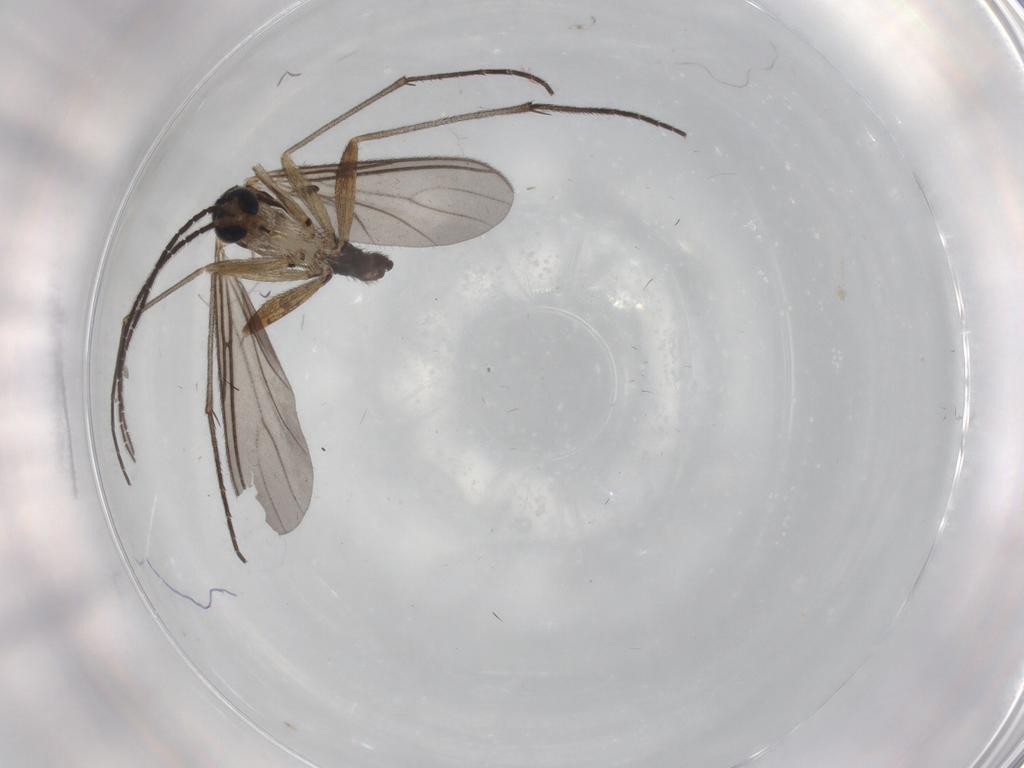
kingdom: Animalia
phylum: Arthropoda
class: Insecta
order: Diptera
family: Sciaridae
